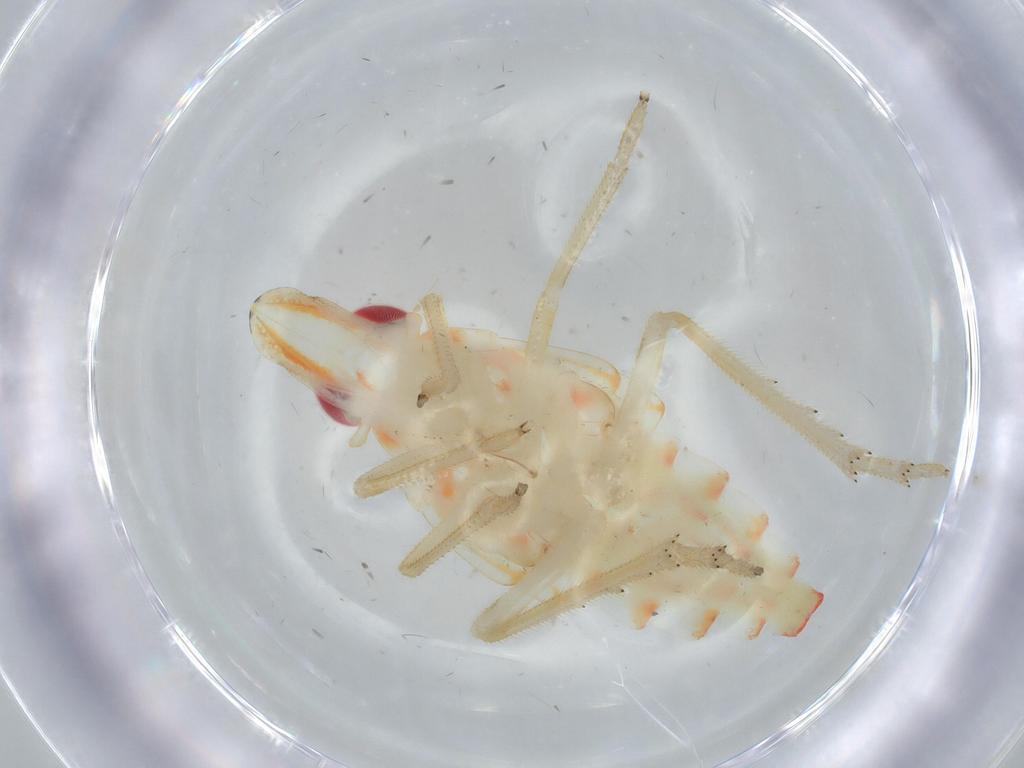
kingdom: Animalia
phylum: Arthropoda
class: Insecta
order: Hemiptera
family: Tropiduchidae
